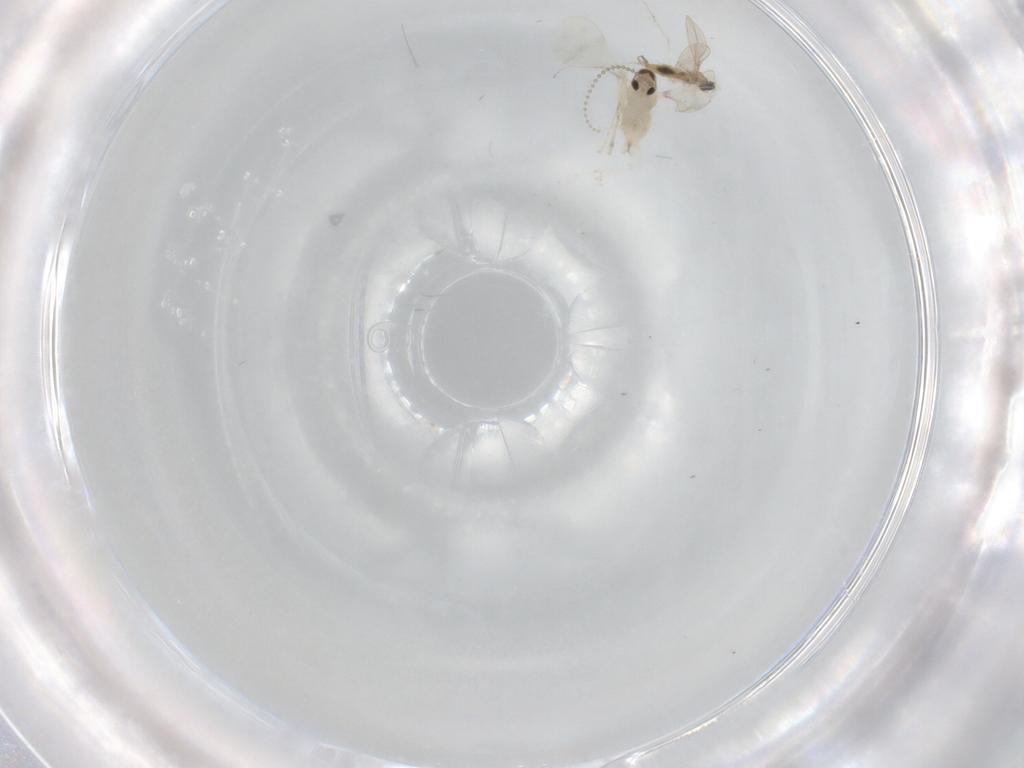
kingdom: Animalia
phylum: Arthropoda
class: Insecta
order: Diptera
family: Cecidomyiidae
